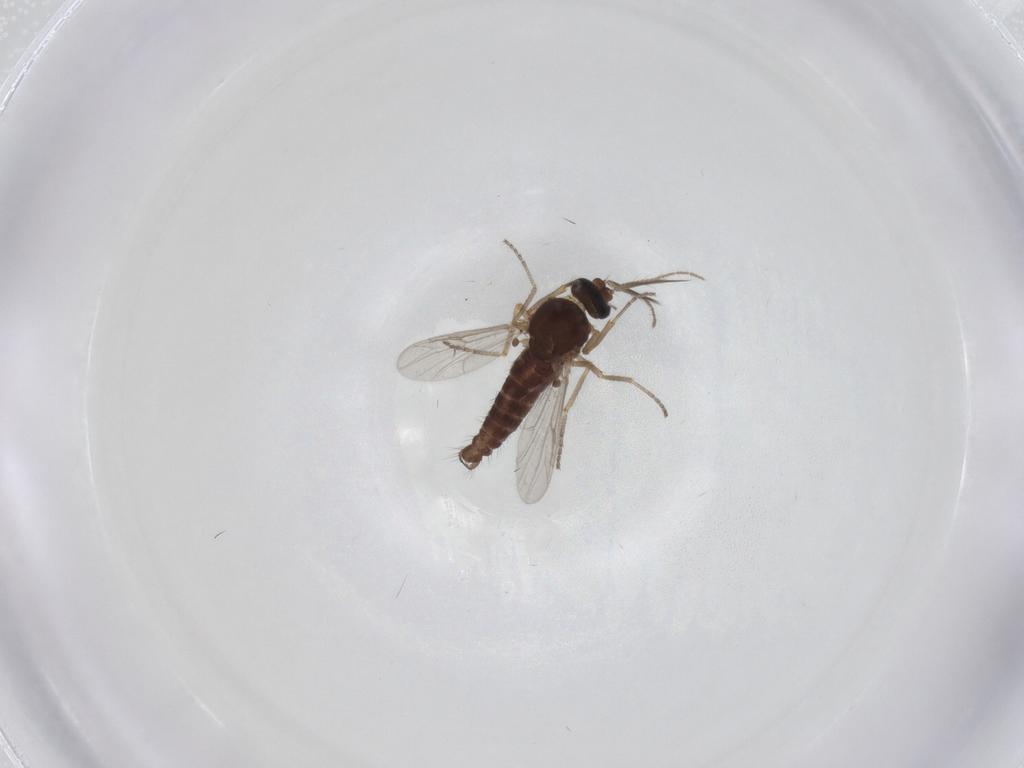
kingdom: Animalia
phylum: Arthropoda
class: Insecta
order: Diptera
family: Ceratopogonidae
